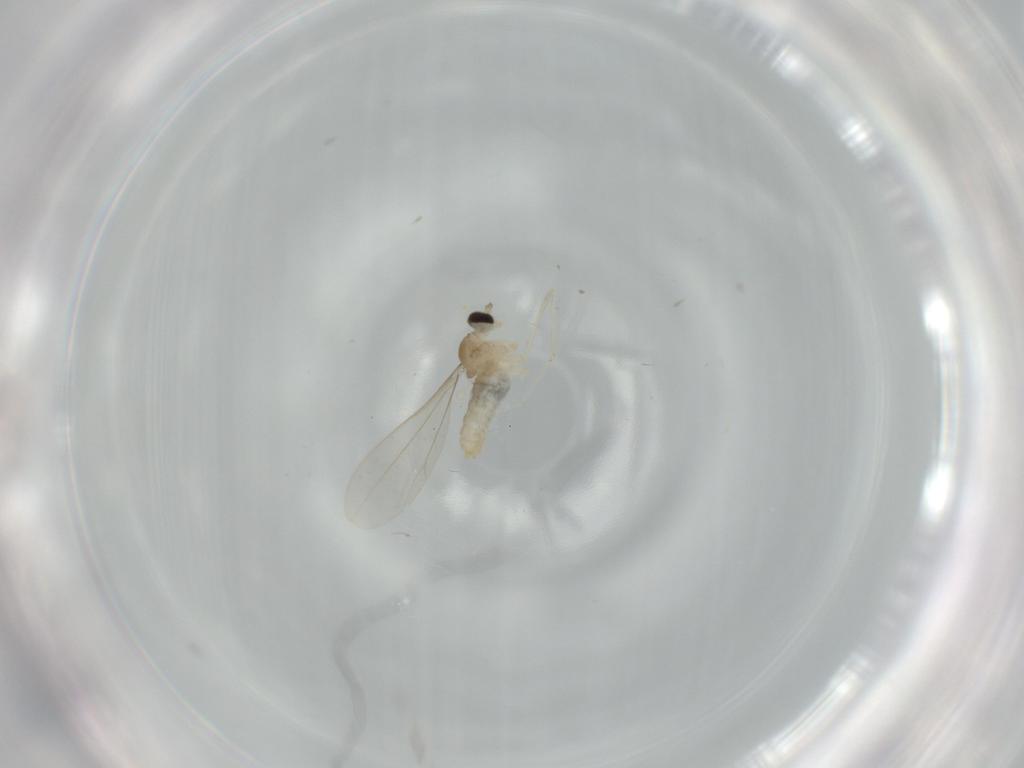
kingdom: Animalia
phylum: Arthropoda
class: Insecta
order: Diptera
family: Cecidomyiidae
